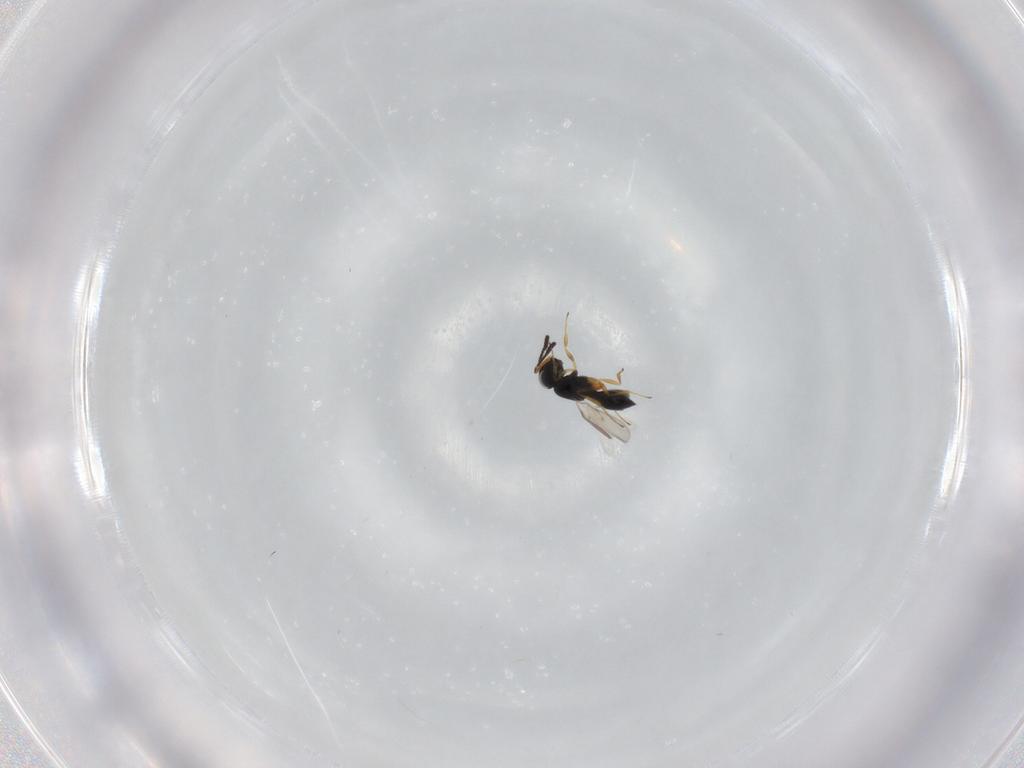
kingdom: Animalia
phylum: Arthropoda
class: Insecta
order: Hymenoptera
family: Scelionidae
